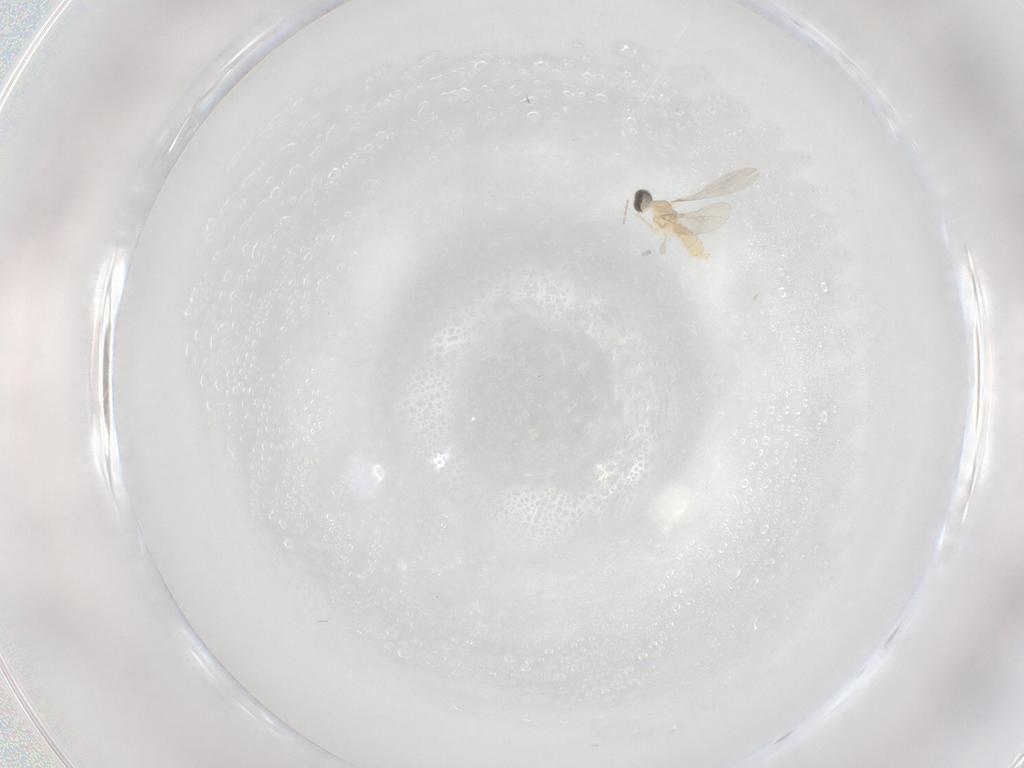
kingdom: Animalia
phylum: Arthropoda
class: Insecta
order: Diptera
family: Cecidomyiidae
